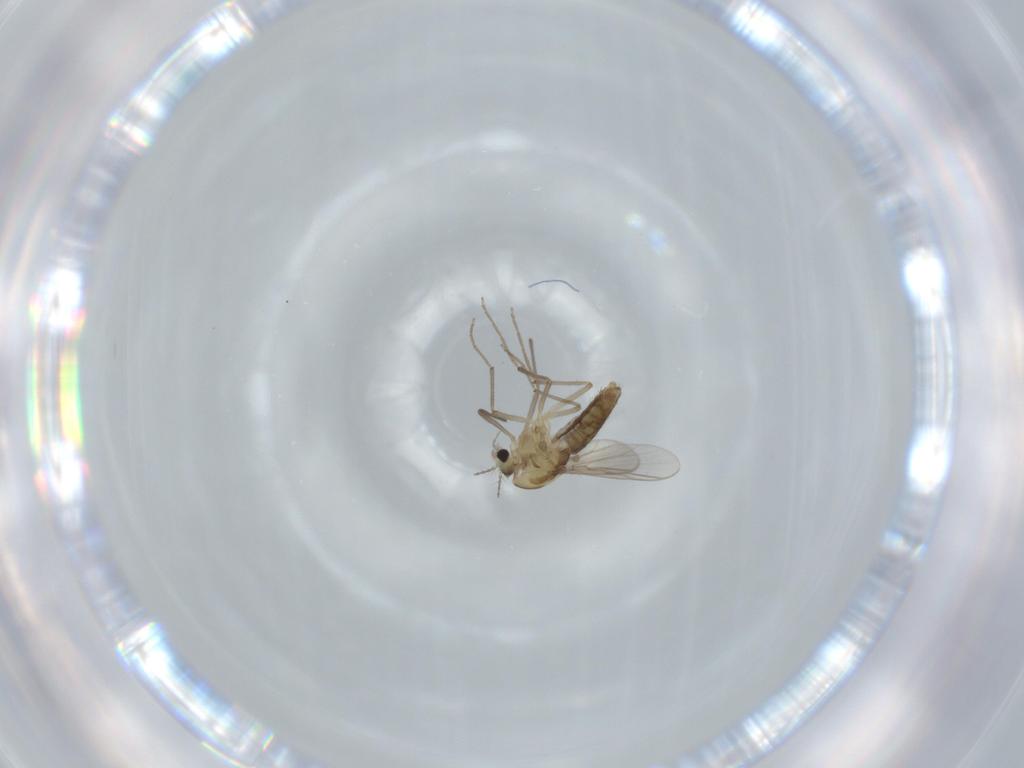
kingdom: Animalia
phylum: Arthropoda
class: Insecta
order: Diptera
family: Chironomidae
